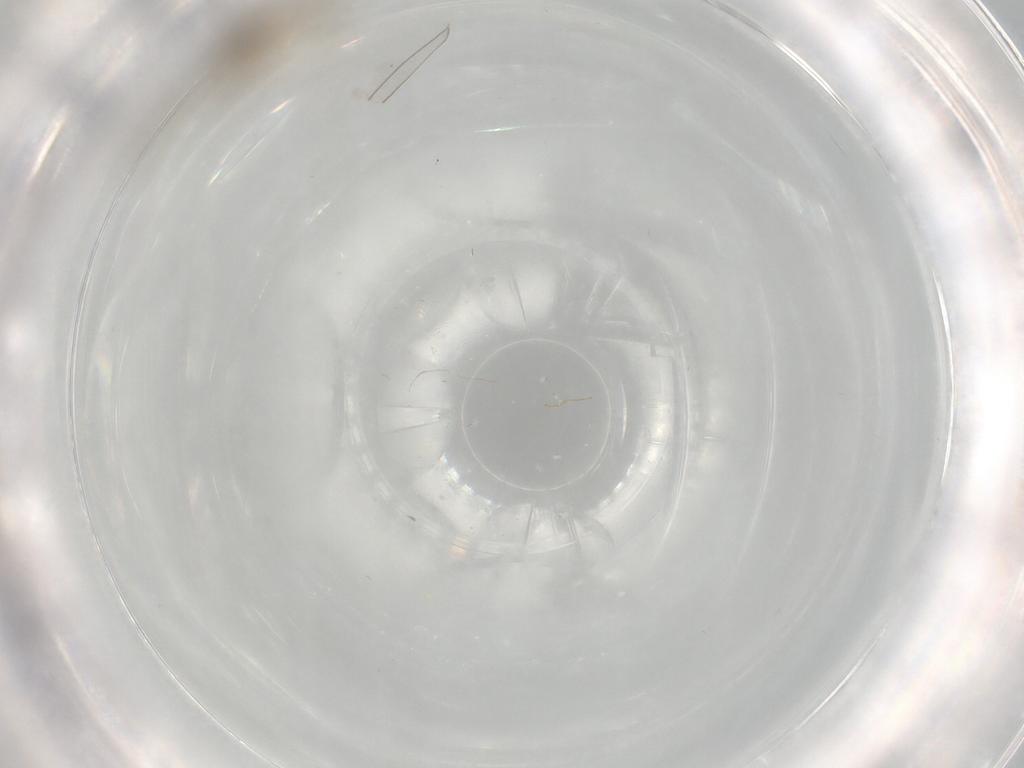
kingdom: Animalia
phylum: Arthropoda
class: Insecta
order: Diptera
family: Cecidomyiidae
